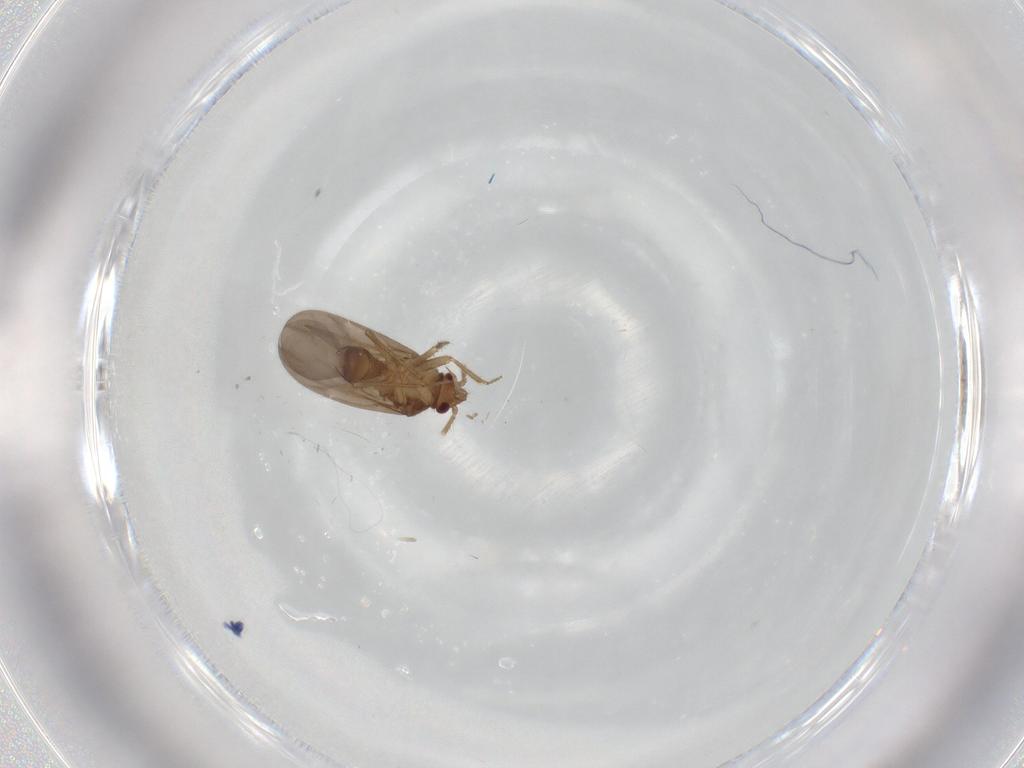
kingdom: Animalia
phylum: Arthropoda
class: Insecta
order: Hemiptera
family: Ceratocombidae
